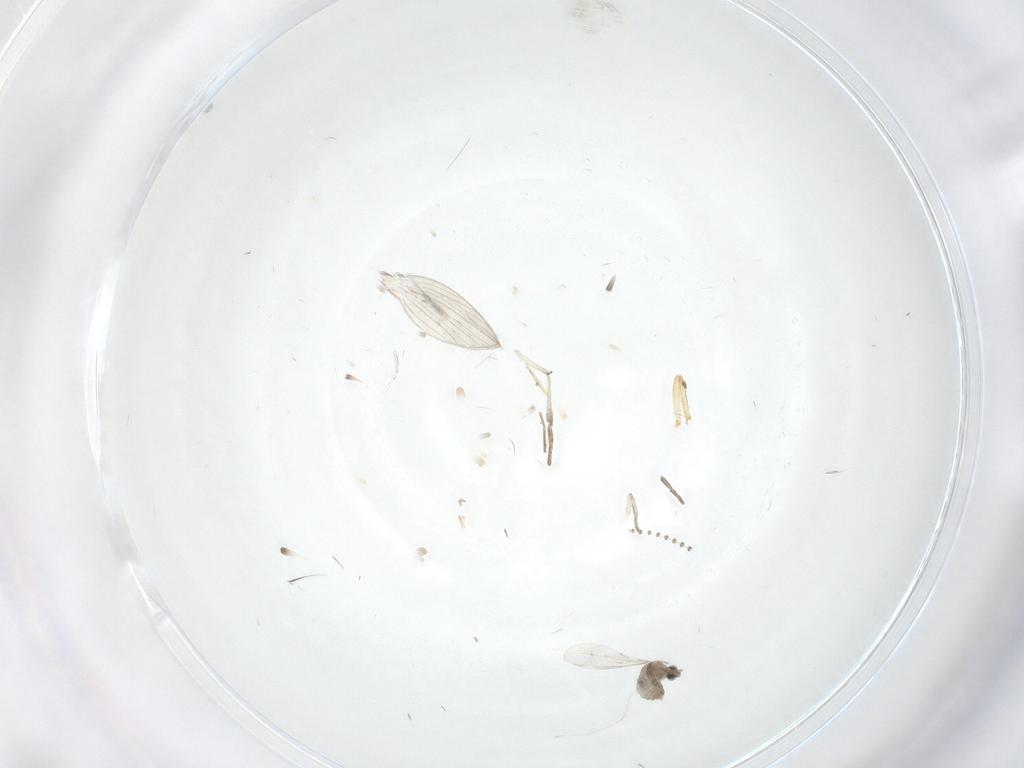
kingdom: Animalia
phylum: Arthropoda
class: Insecta
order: Diptera
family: Psychodidae
